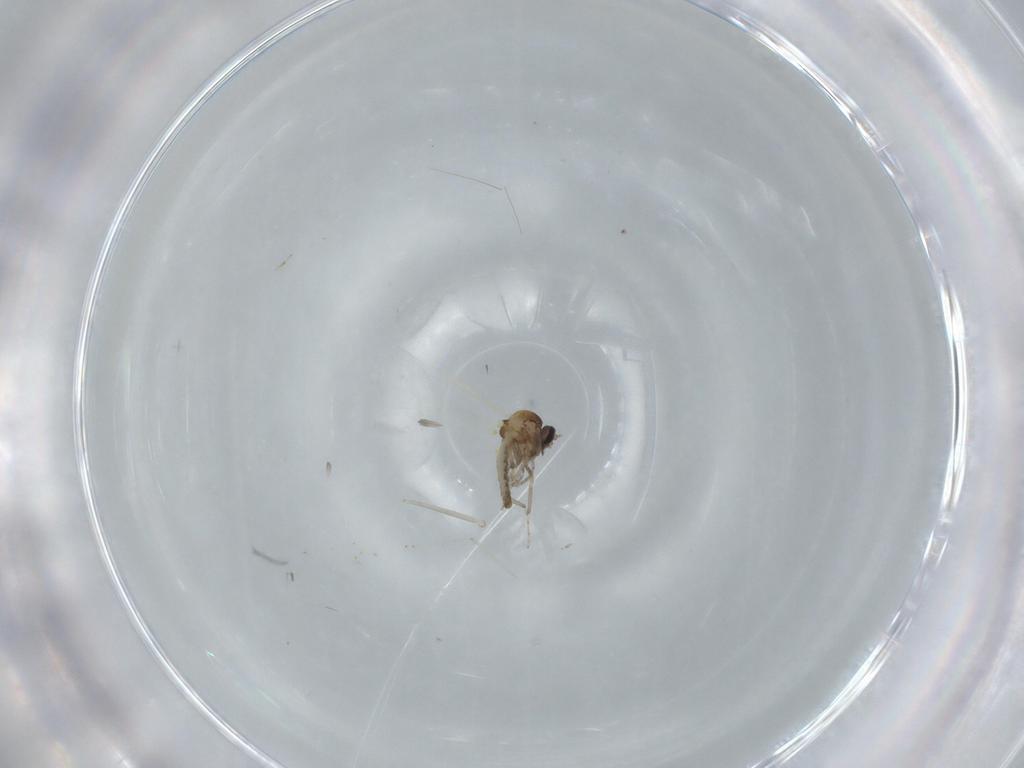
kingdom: Animalia
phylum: Arthropoda
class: Insecta
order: Diptera
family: Ceratopogonidae
